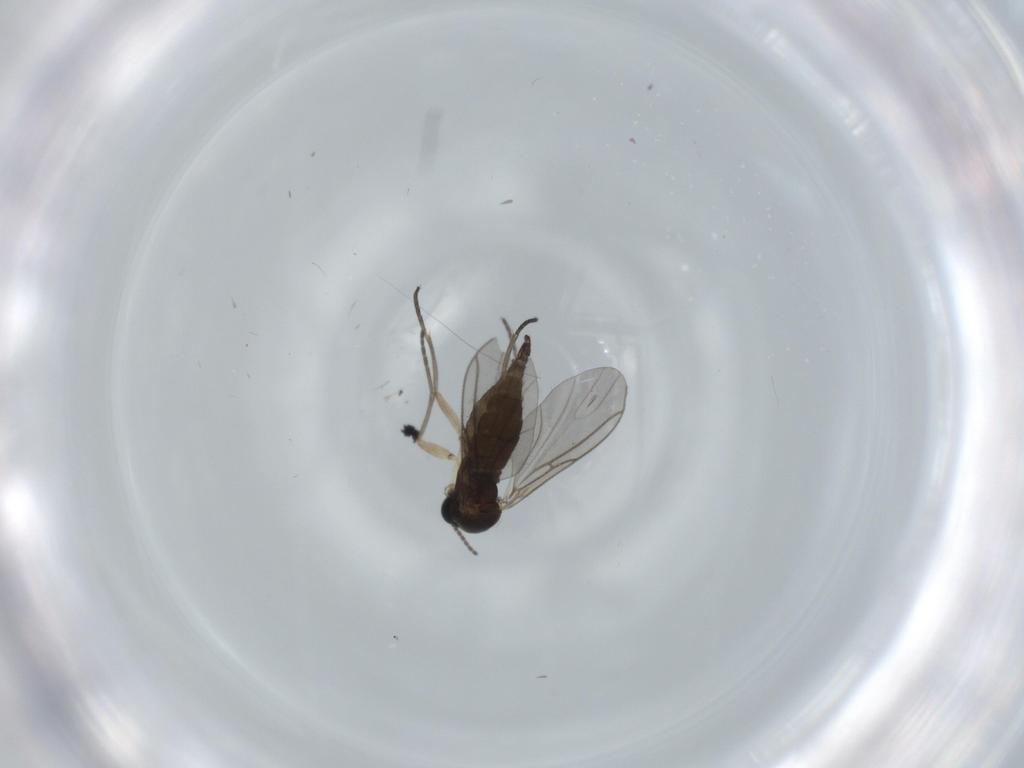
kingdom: Animalia
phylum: Arthropoda
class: Insecta
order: Diptera
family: Sciaridae
